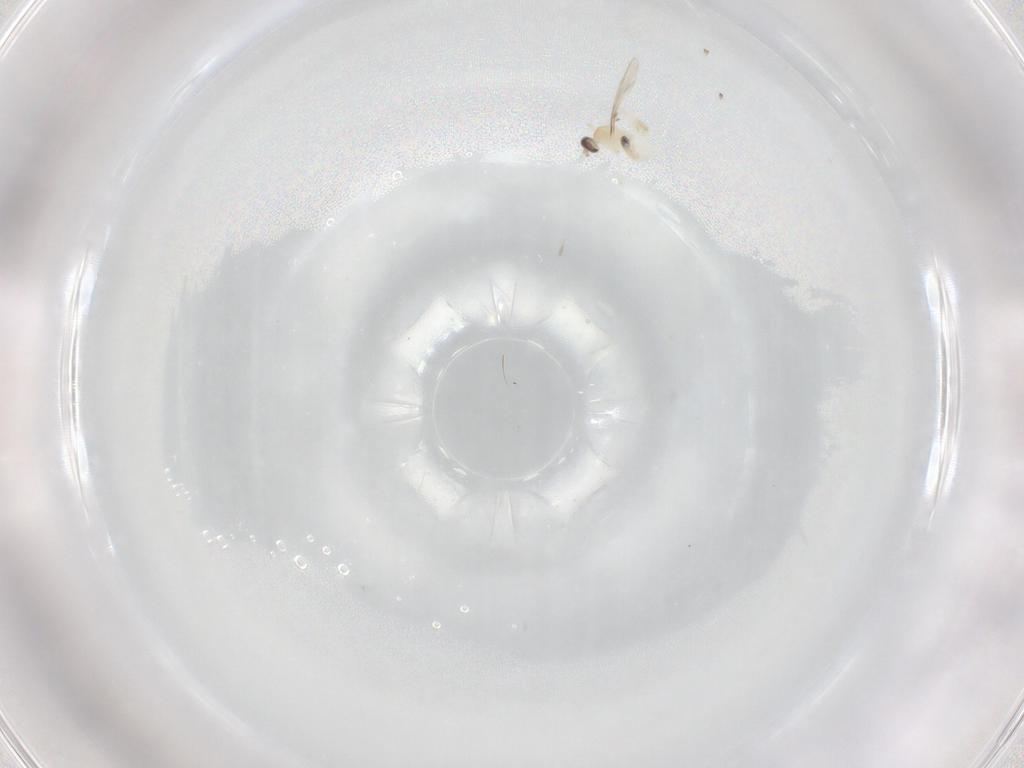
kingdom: Animalia
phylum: Arthropoda
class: Insecta
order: Diptera
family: Cecidomyiidae
